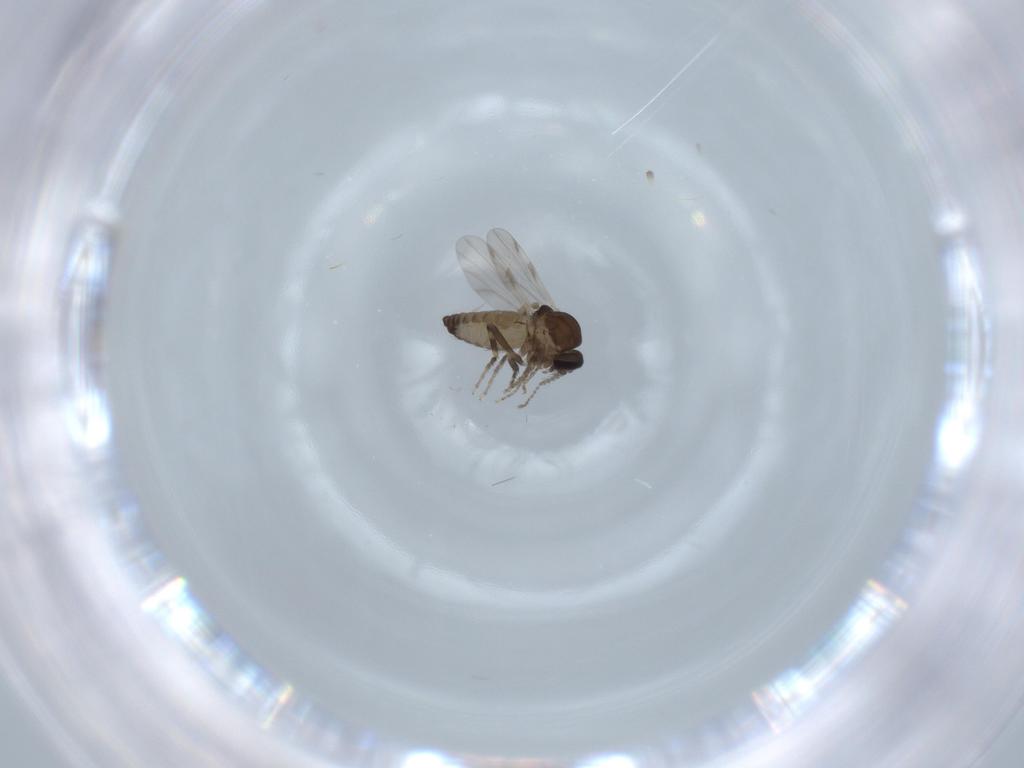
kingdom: Animalia
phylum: Arthropoda
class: Insecta
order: Diptera
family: Ceratopogonidae
